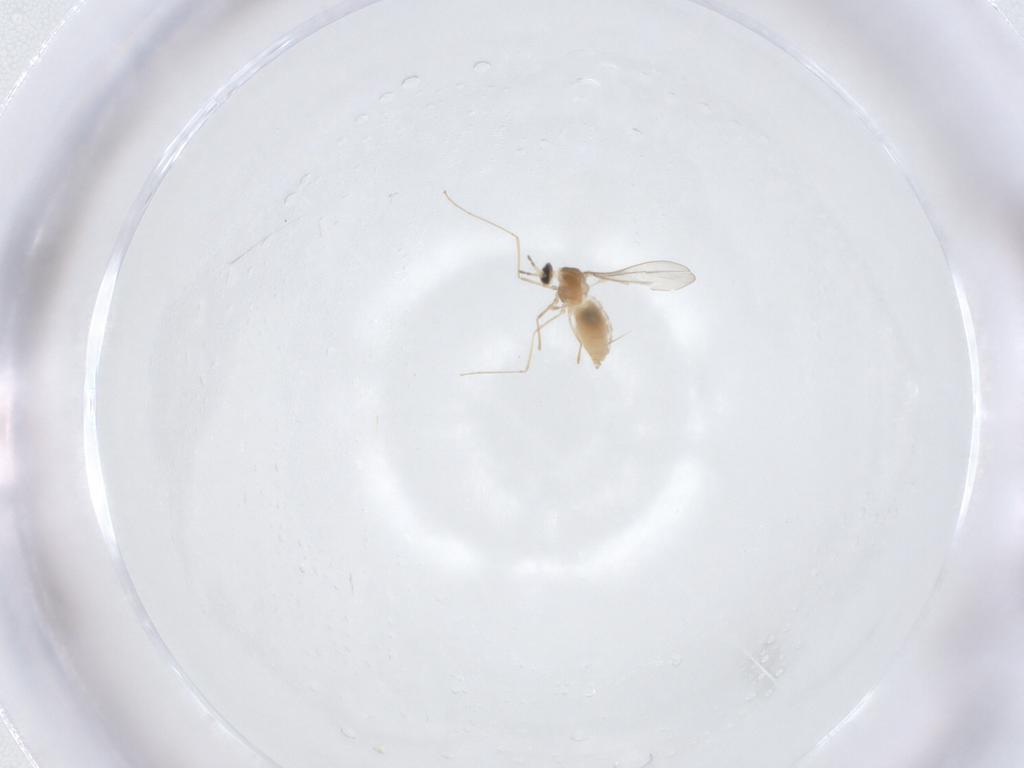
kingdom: Animalia
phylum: Arthropoda
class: Insecta
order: Diptera
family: Cecidomyiidae
